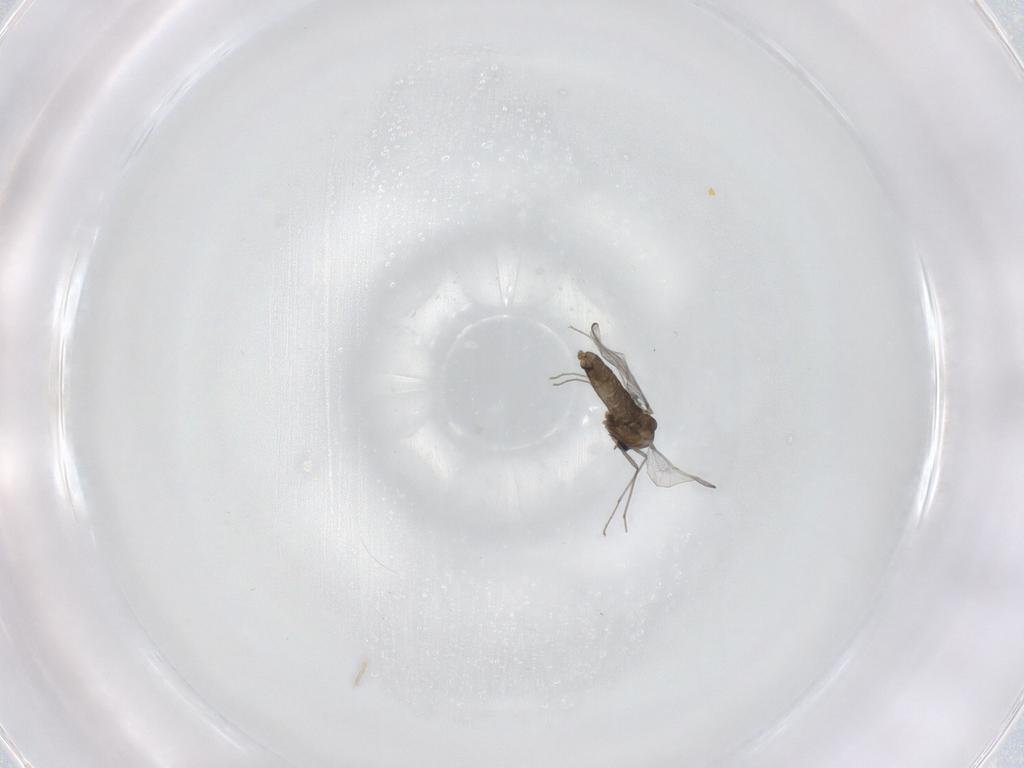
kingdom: Animalia
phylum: Arthropoda
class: Insecta
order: Diptera
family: Chironomidae
